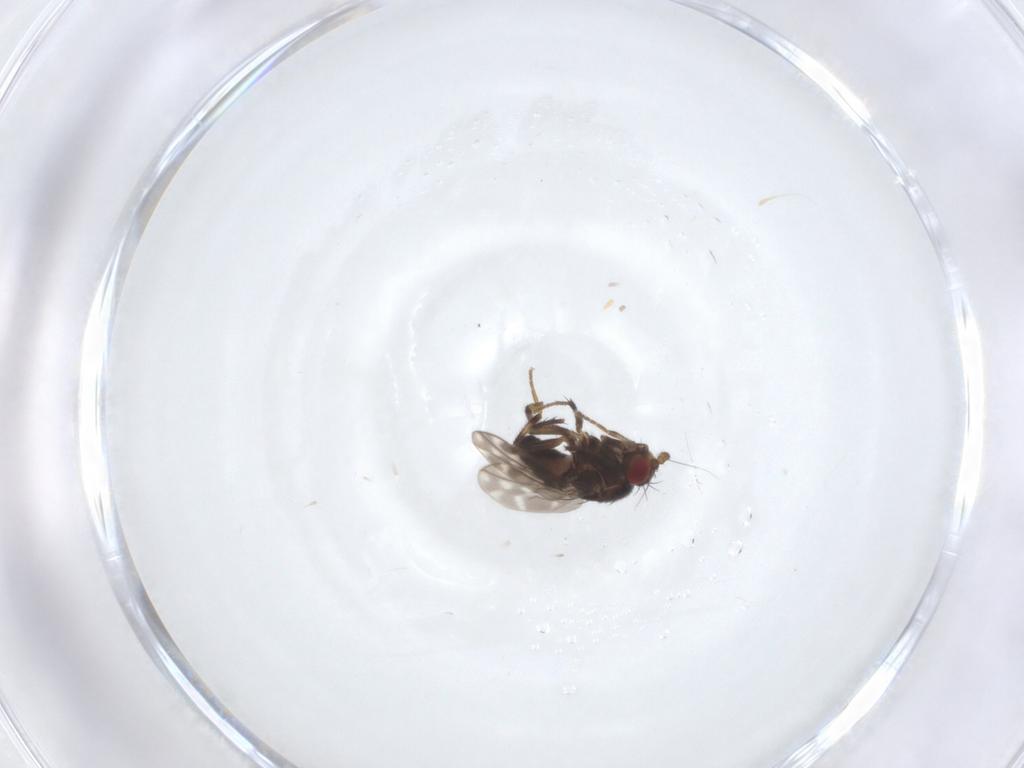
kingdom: Animalia
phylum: Arthropoda
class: Insecta
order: Diptera
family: Sphaeroceridae
